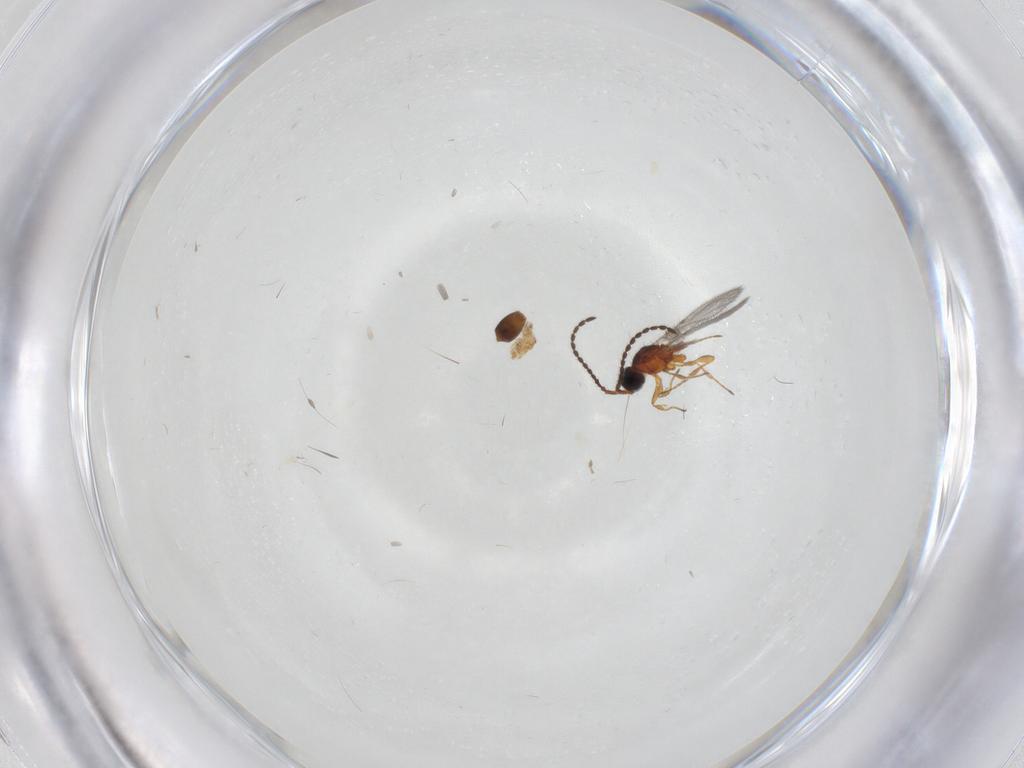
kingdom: Animalia
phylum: Arthropoda
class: Insecta
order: Hymenoptera
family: Diapriidae
